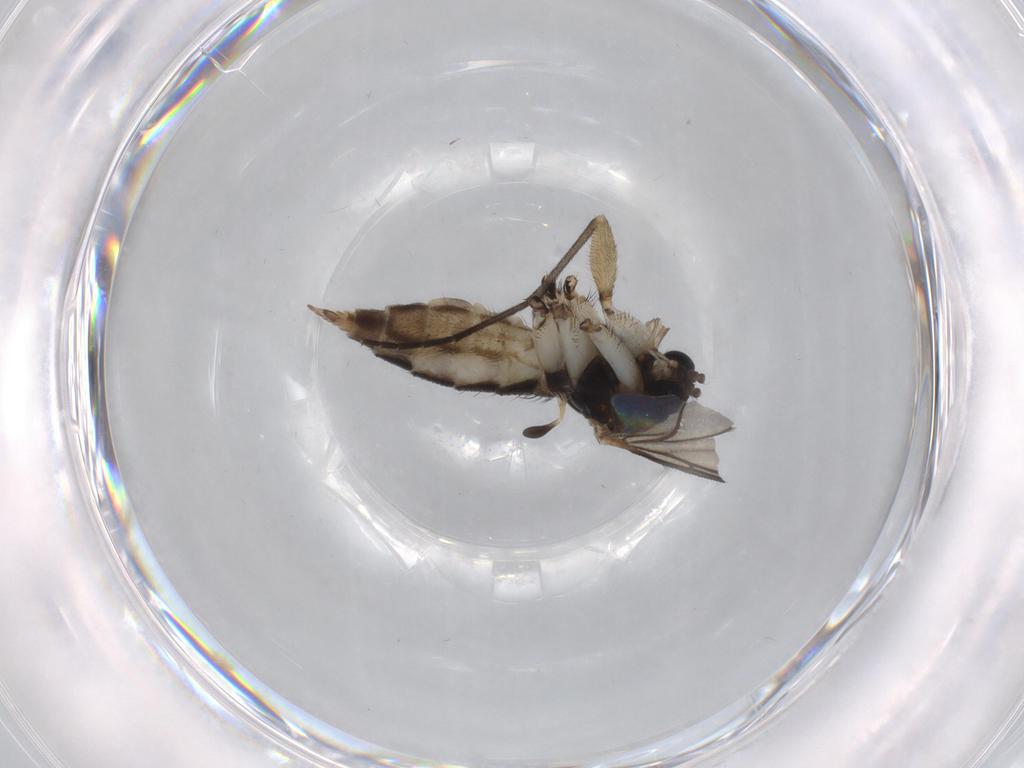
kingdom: Animalia
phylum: Arthropoda
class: Insecta
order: Diptera
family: Sciaridae
